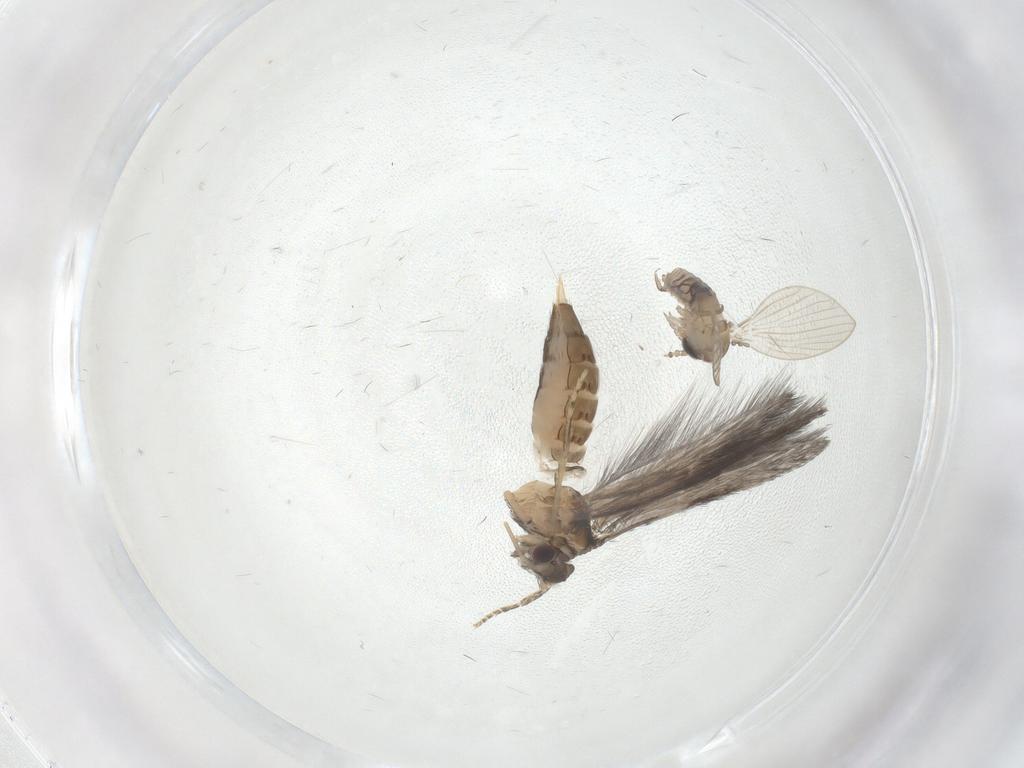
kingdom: Animalia
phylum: Arthropoda
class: Insecta
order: Diptera
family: Psychodidae
